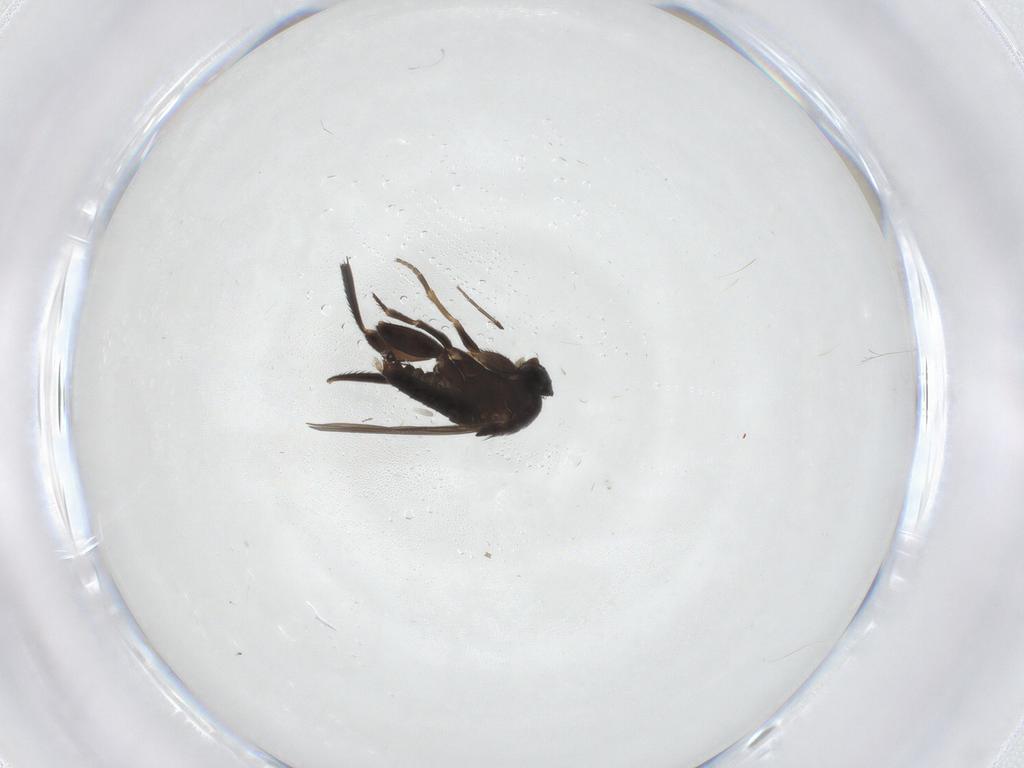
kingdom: Animalia
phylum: Arthropoda
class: Insecta
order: Diptera
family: Phoridae
